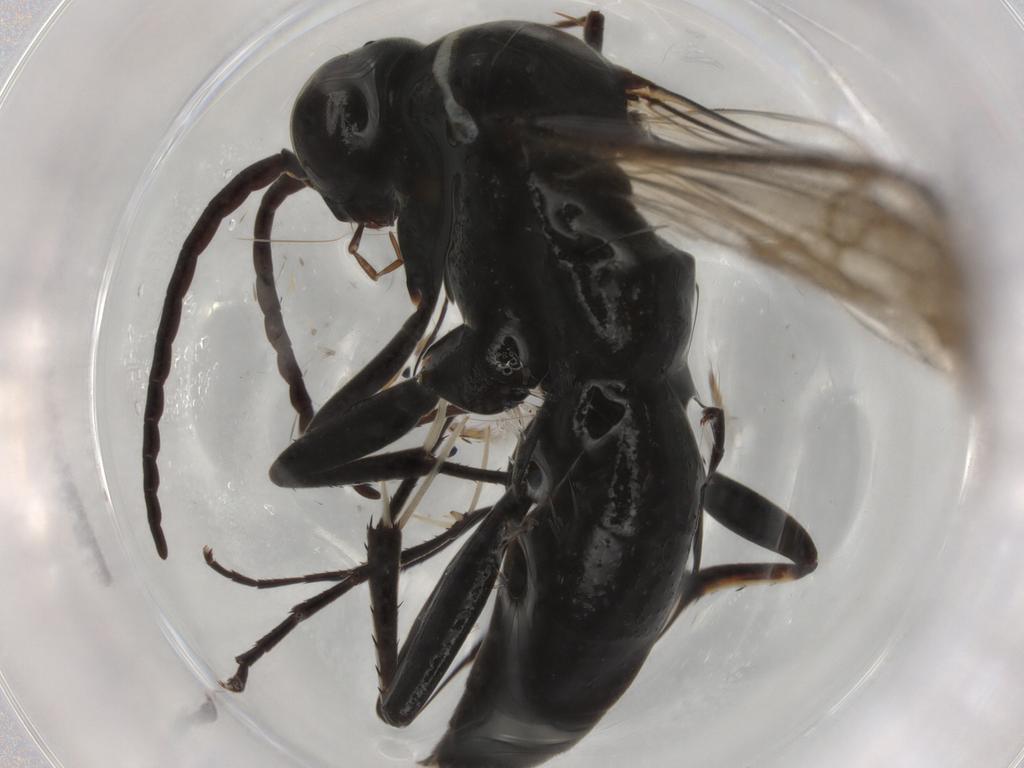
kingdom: Animalia
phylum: Arthropoda
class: Insecta
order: Hymenoptera
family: Pompilidae
